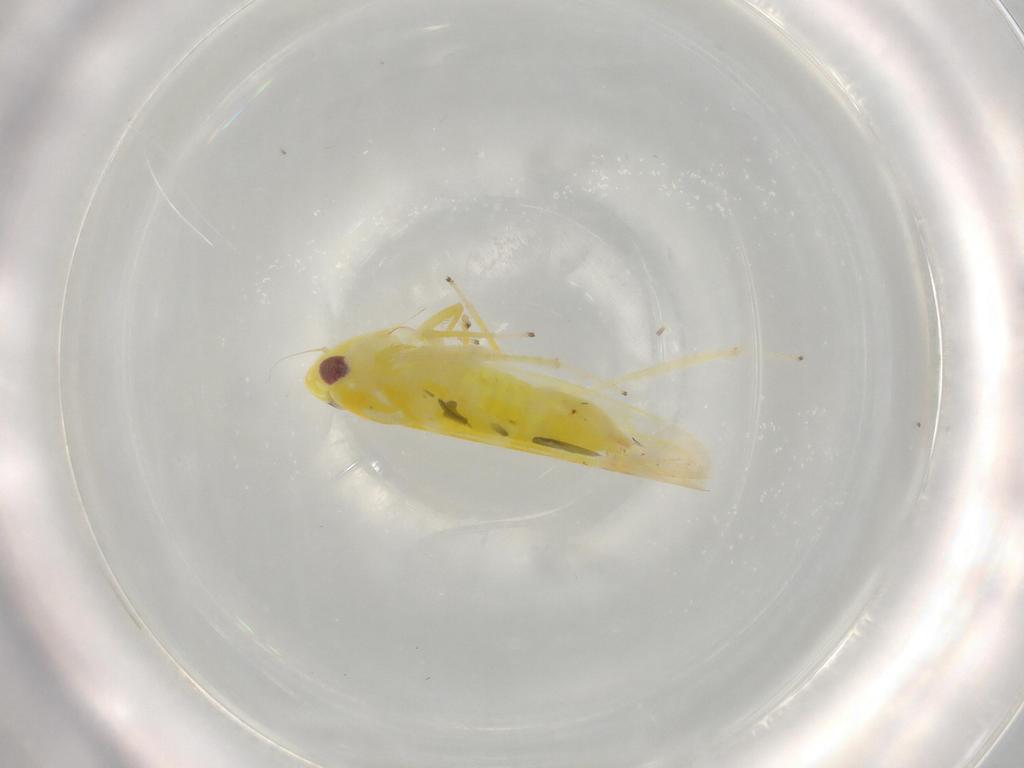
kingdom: Animalia
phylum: Arthropoda
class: Insecta
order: Hemiptera
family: Cicadellidae
